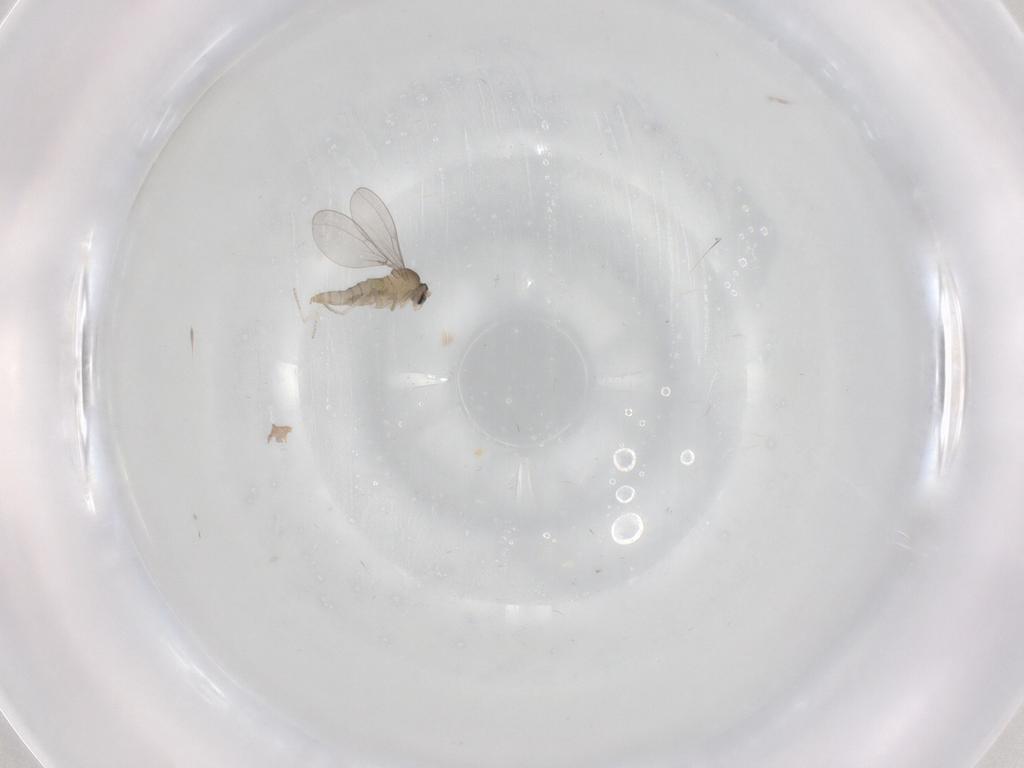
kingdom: Animalia
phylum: Arthropoda
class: Insecta
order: Diptera
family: Cecidomyiidae
